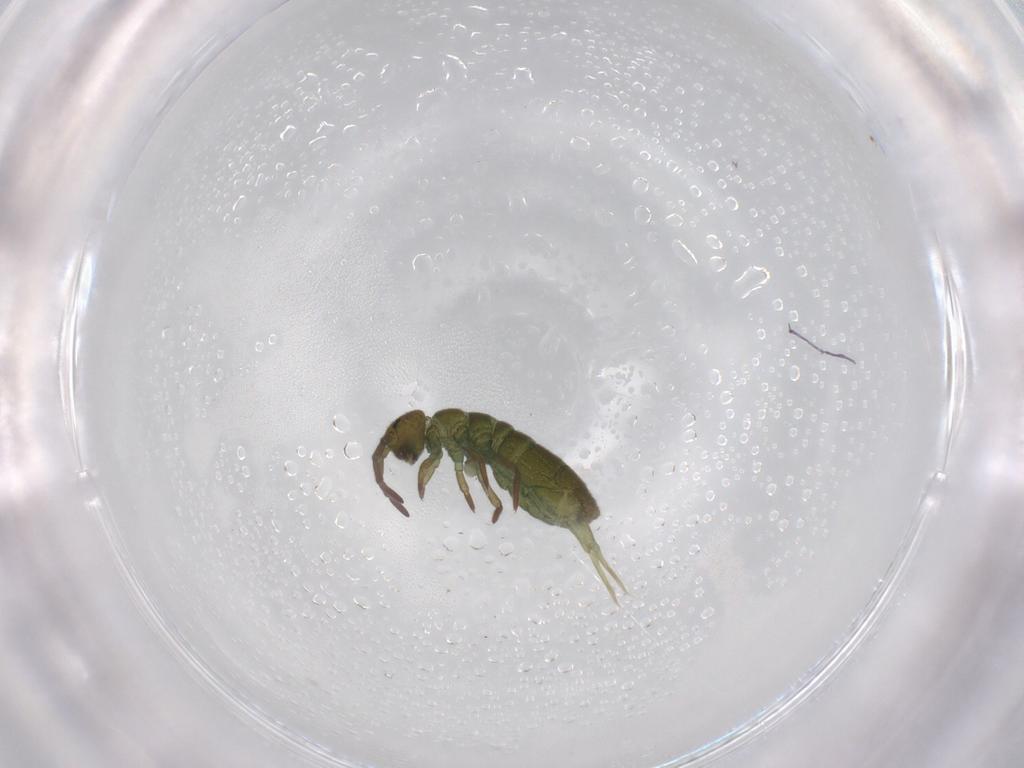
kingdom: Animalia
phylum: Arthropoda
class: Collembola
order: Entomobryomorpha
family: Isotomidae
